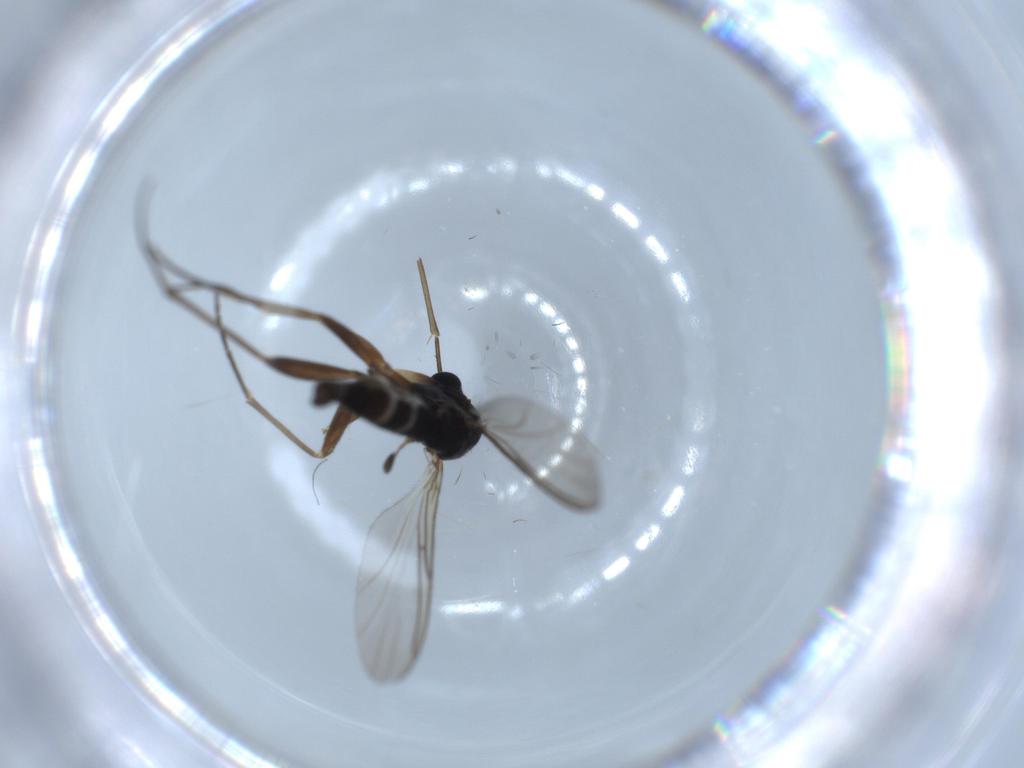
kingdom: Animalia
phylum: Arthropoda
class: Insecta
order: Diptera
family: Sciaridae
